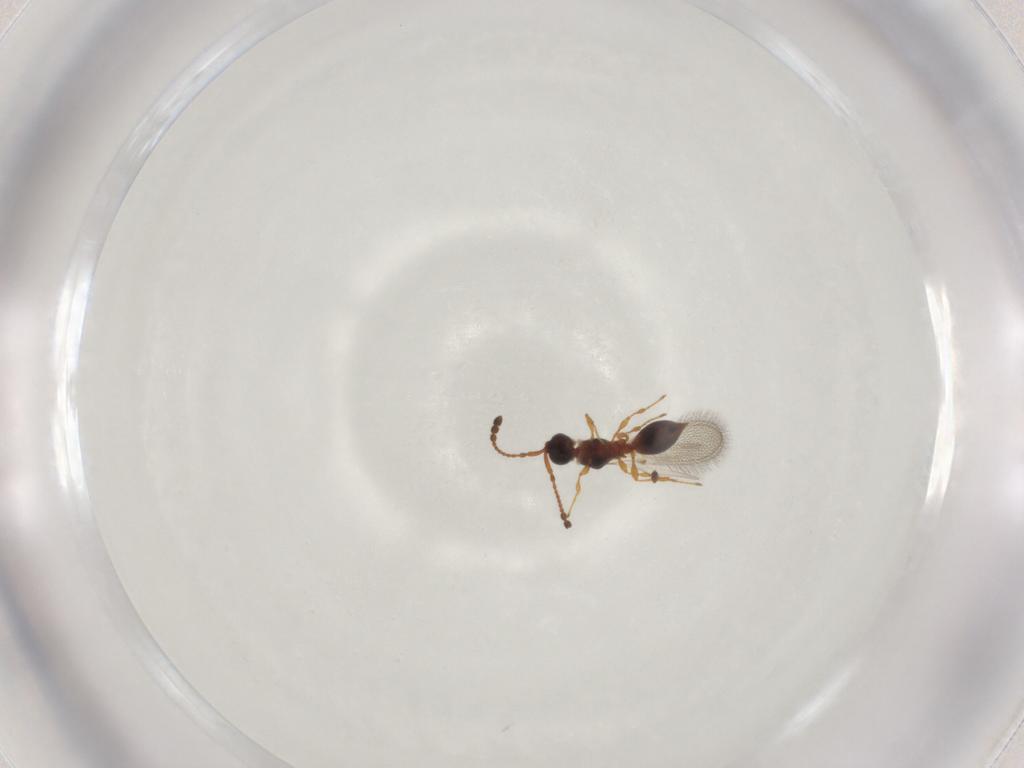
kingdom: Animalia
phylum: Arthropoda
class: Insecta
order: Hymenoptera
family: Diapriidae
